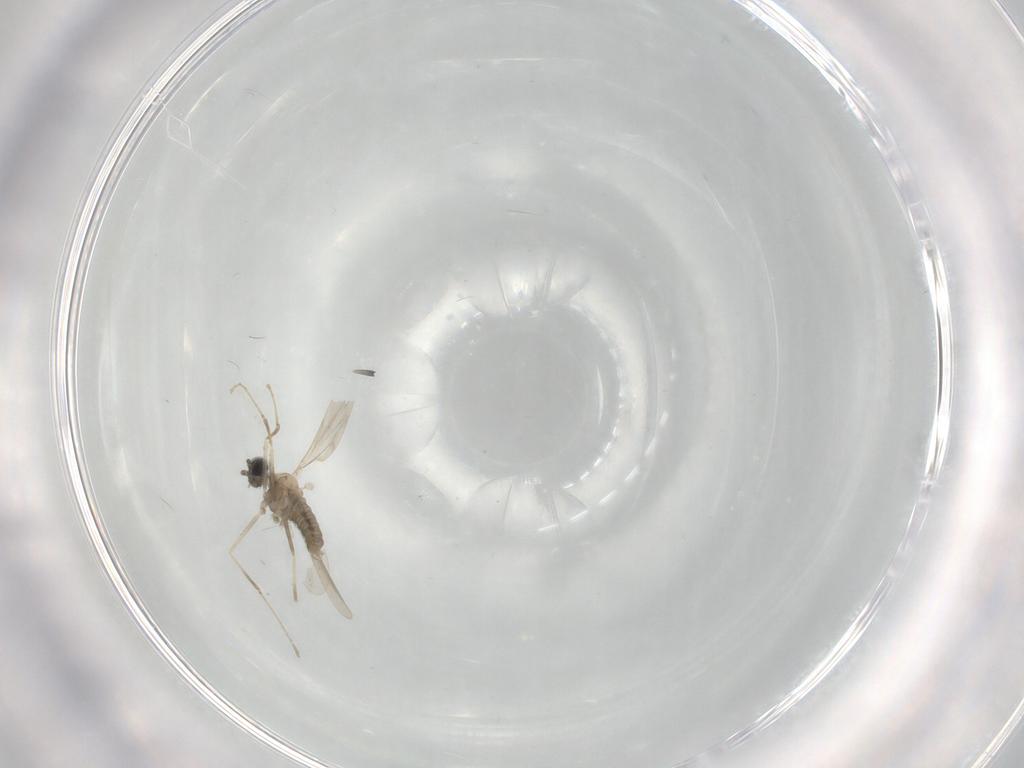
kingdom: Animalia
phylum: Arthropoda
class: Insecta
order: Diptera
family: Cecidomyiidae
